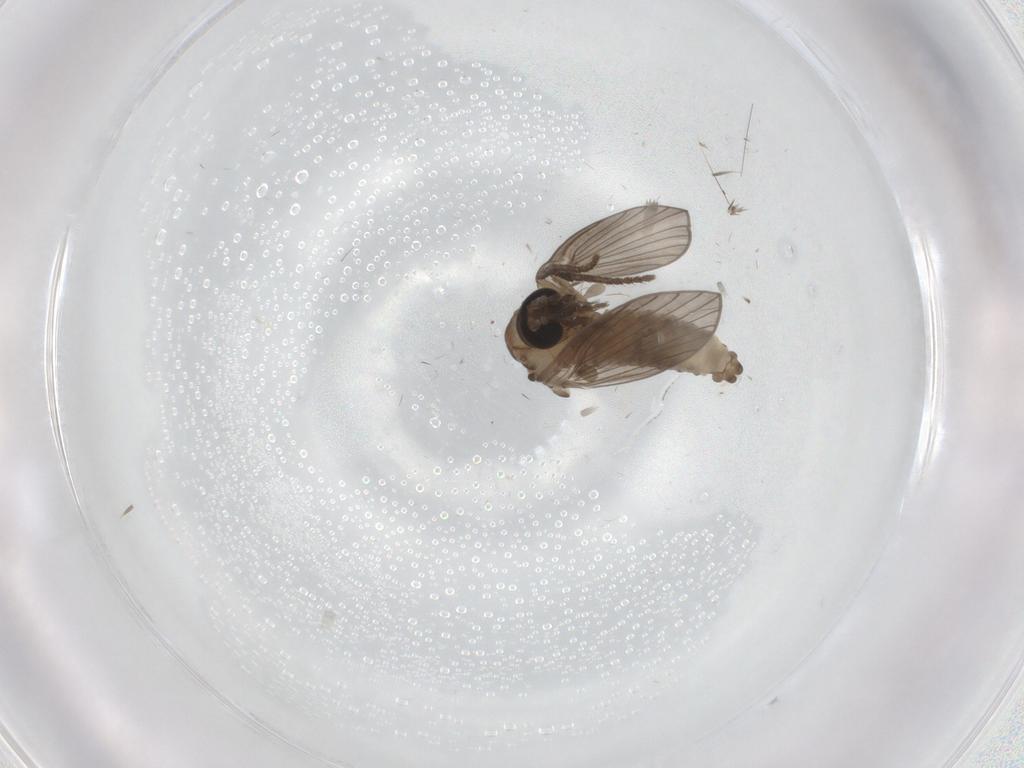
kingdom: Animalia
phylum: Arthropoda
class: Insecta
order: Diptera
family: Psychodidae
